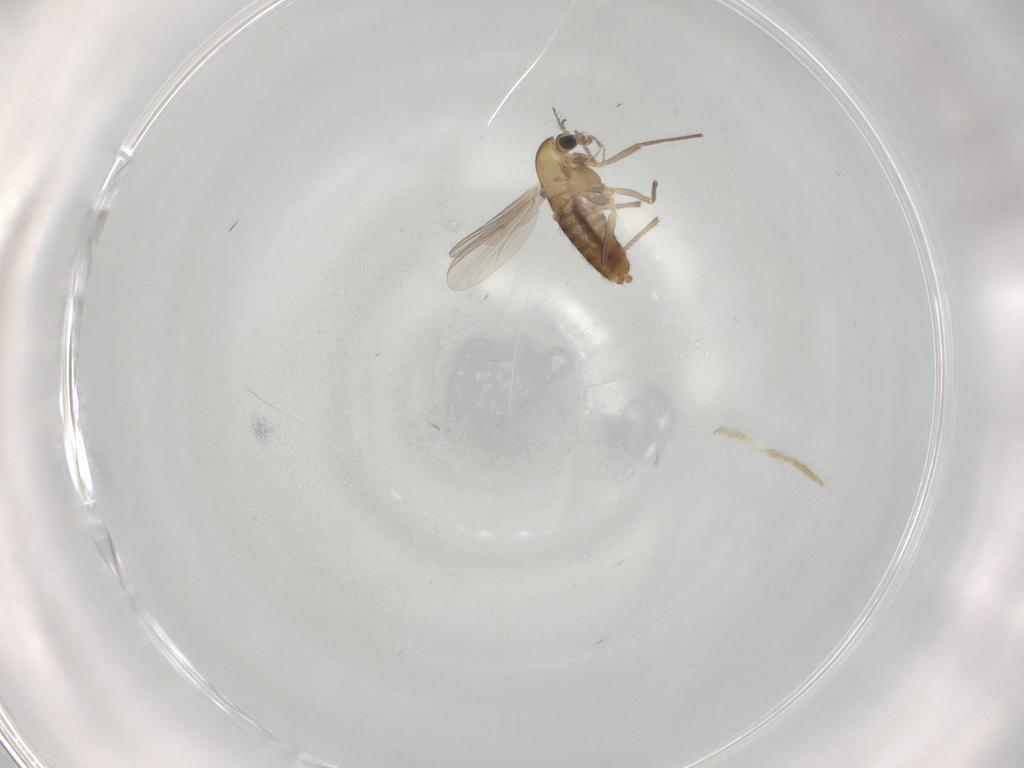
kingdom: Animalia
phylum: Arthropoda
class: Insecta
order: Diptera
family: Chironomidae
